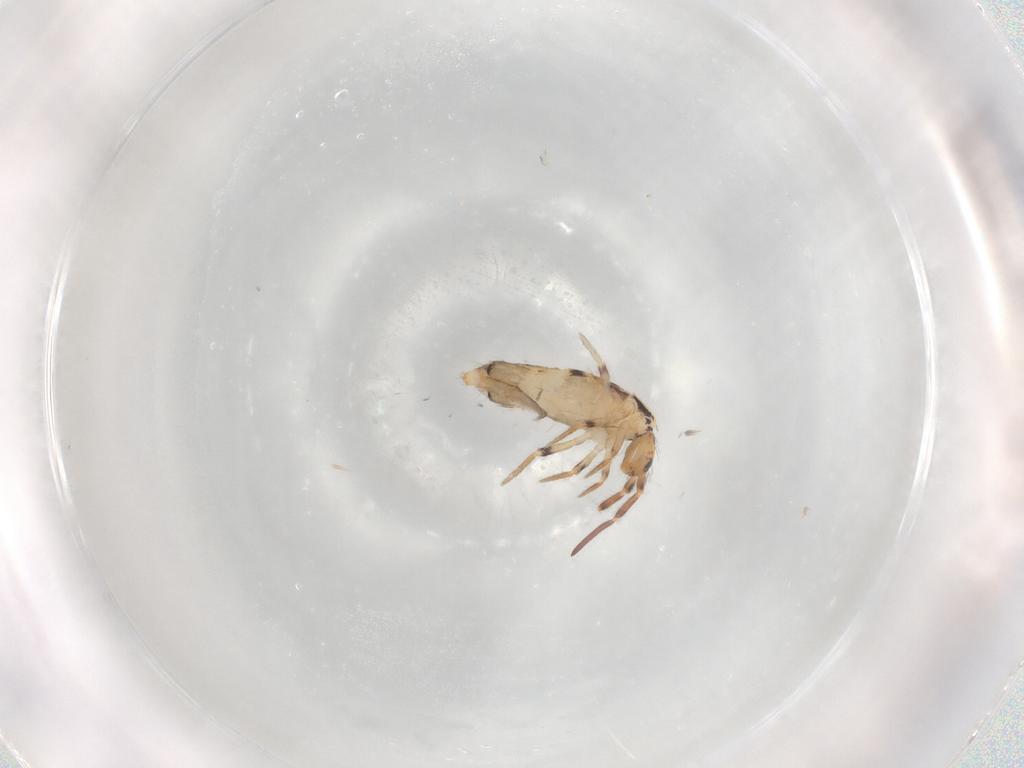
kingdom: Animalia
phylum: Arthropoda
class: Collembola
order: Entomobryomorpha
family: Entomobryidae
